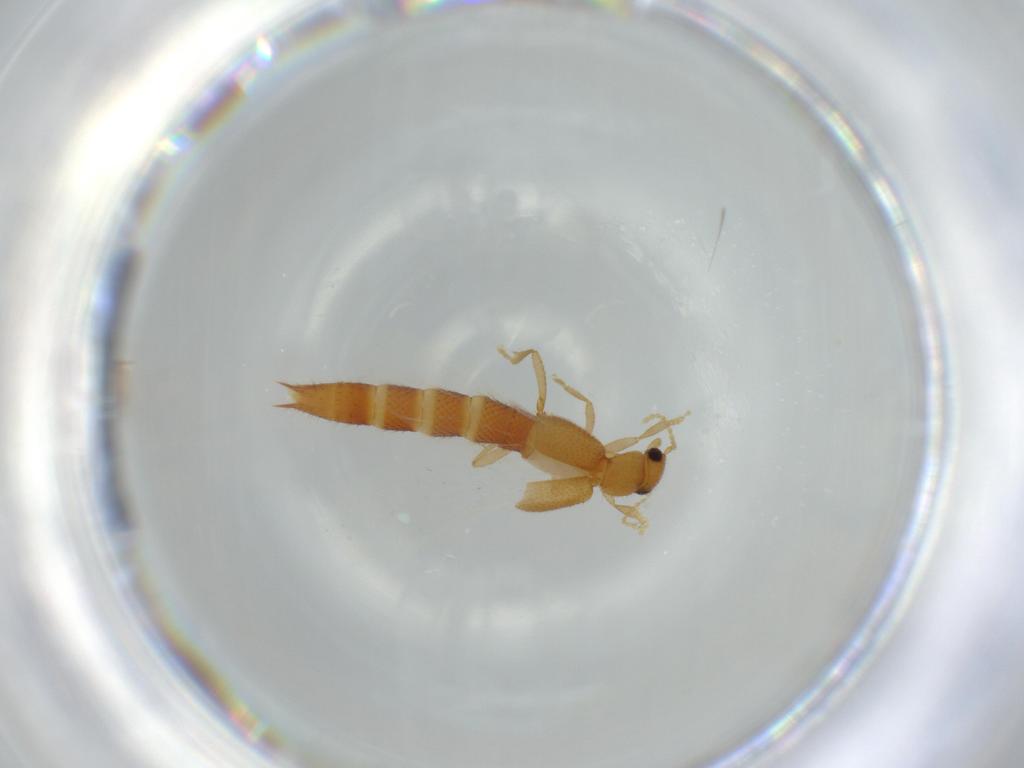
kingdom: Animalia
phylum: Arthropoda
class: Insecta
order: Coleoptera
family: Staphylinidae
